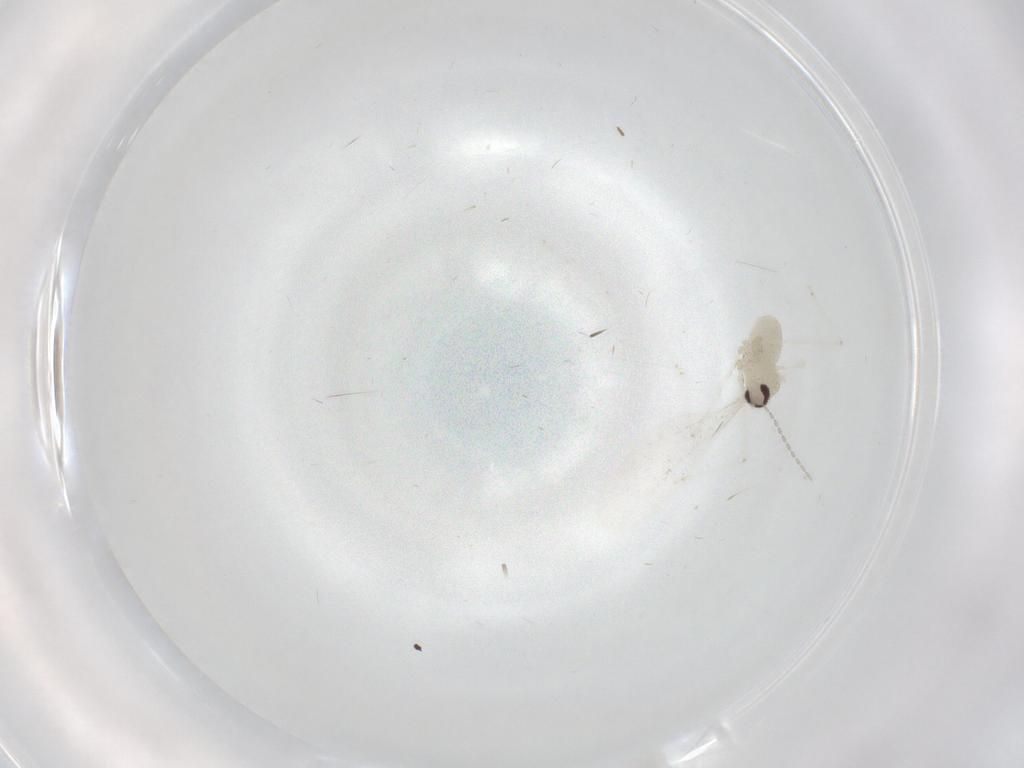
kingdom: Animalia
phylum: Arthropoda
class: Insecta
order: Diptera
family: Cecidomyiidae
